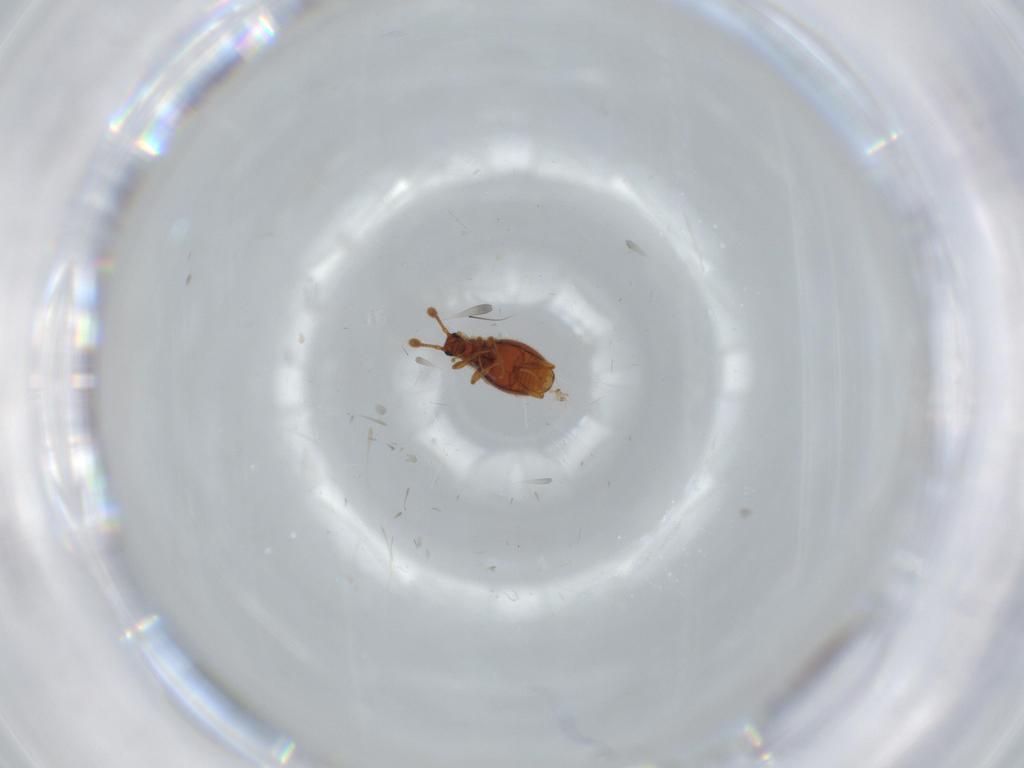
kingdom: Animalia
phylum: Arthropoda
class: Insecta
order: Coleoptera
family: Staphylinidae
